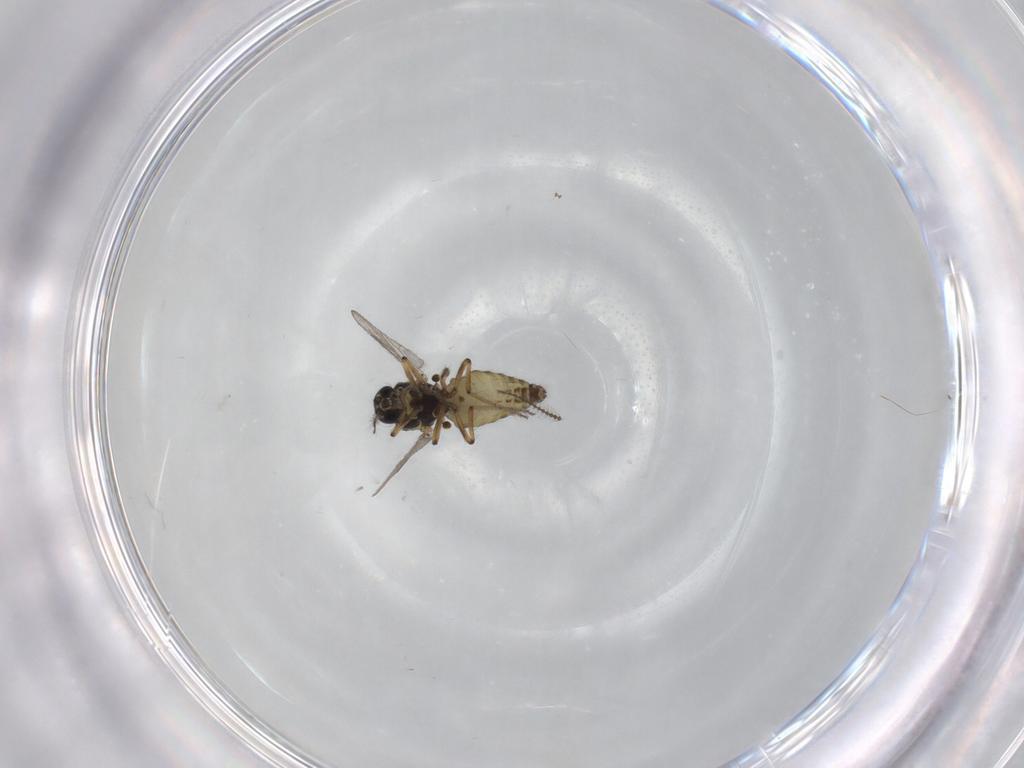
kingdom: Animalia
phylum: Arthropoda
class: Insecta
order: Diptera
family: Ceratopogonidae
